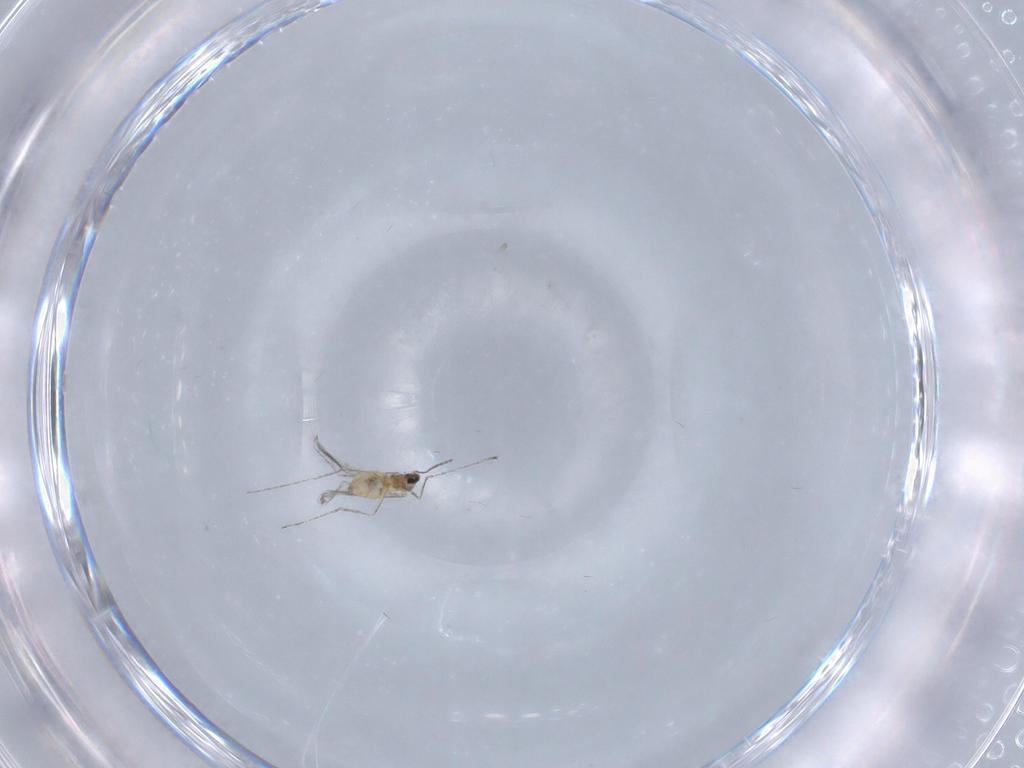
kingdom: Animalia
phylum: Arthropoda
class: Insecta
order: Diptera
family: Cecidomyiidae
